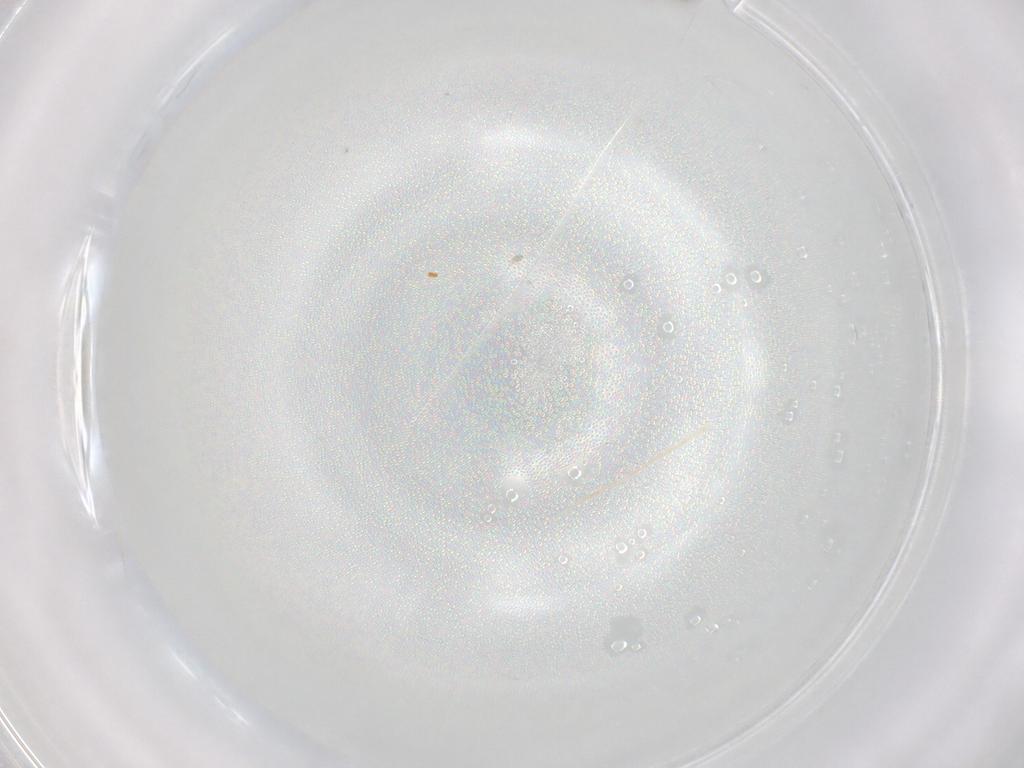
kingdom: Animalia
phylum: Arthropoda
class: Insecta
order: Diptera
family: Cecidomyiidae
